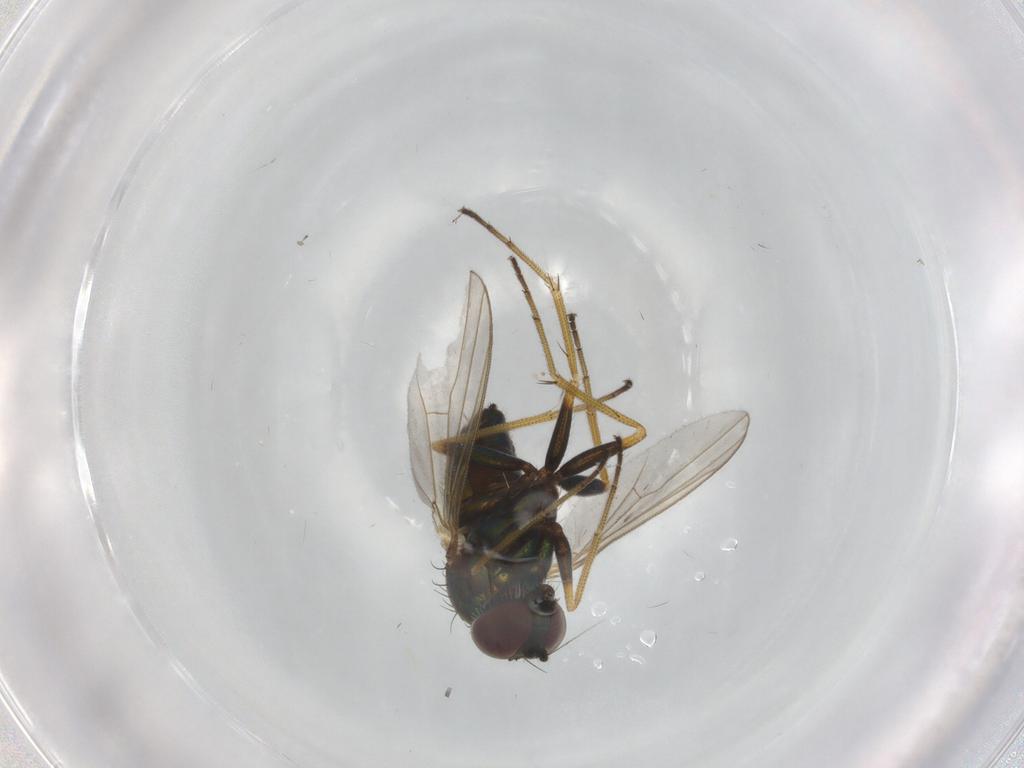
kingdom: Animalia
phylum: Arthropoda
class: Insecta
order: Diptera
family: Dolichopodidae
